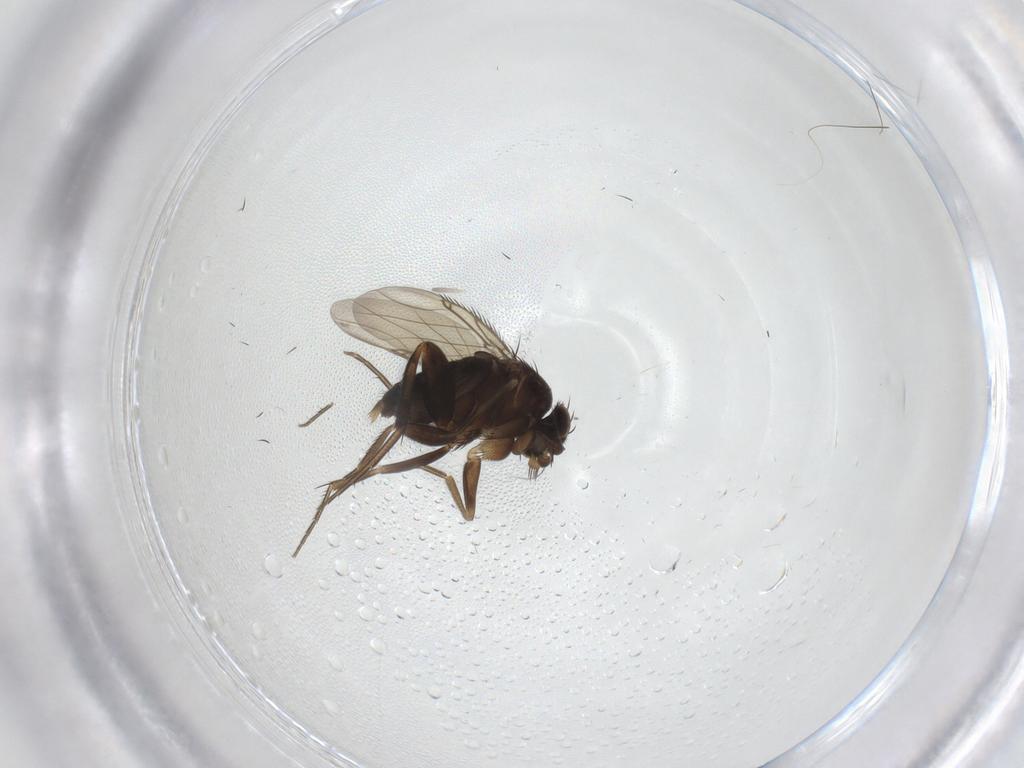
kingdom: Animalia
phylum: Arthropoda
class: Insecta
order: Diptera
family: Phoridae
